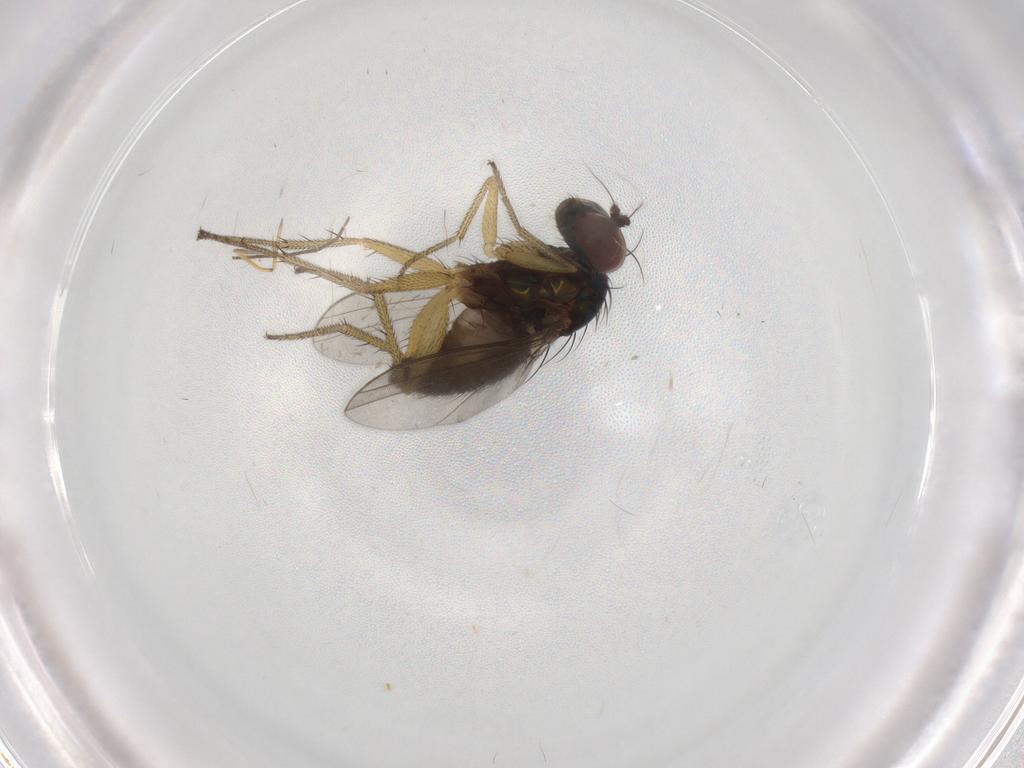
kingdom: Animalia
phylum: Arthropoda
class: Insecta
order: Diptera
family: Dolichopodidae
